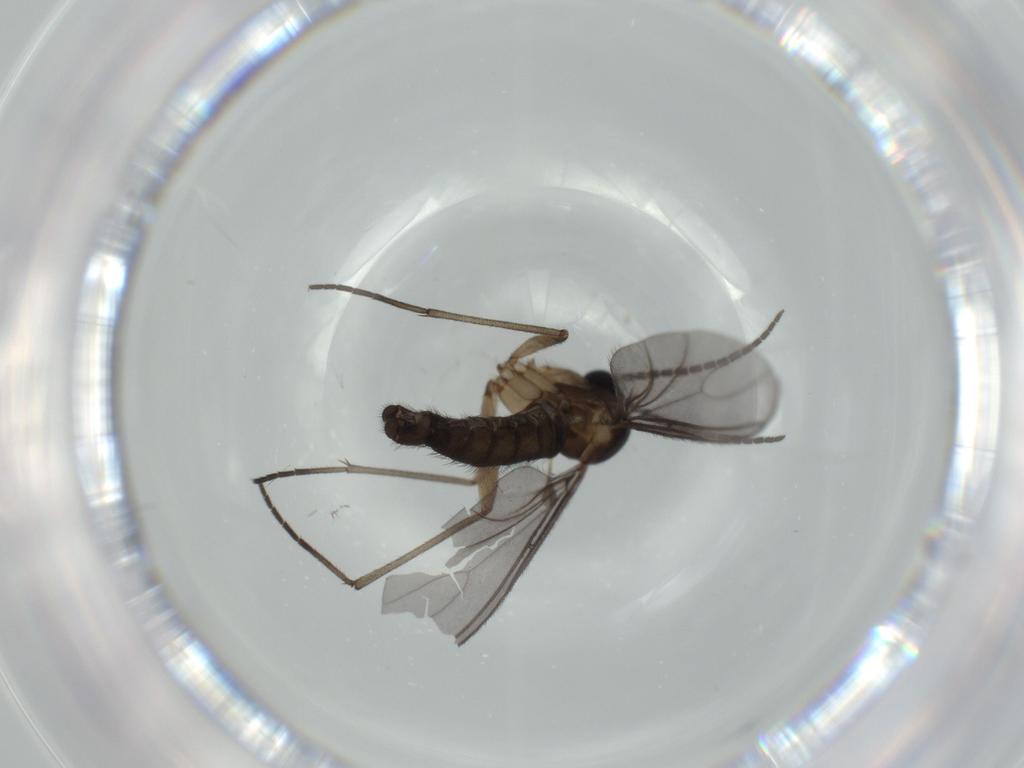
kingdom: Animalia
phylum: Arthropoda
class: Insecta
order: Diptera
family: Sciaridae
